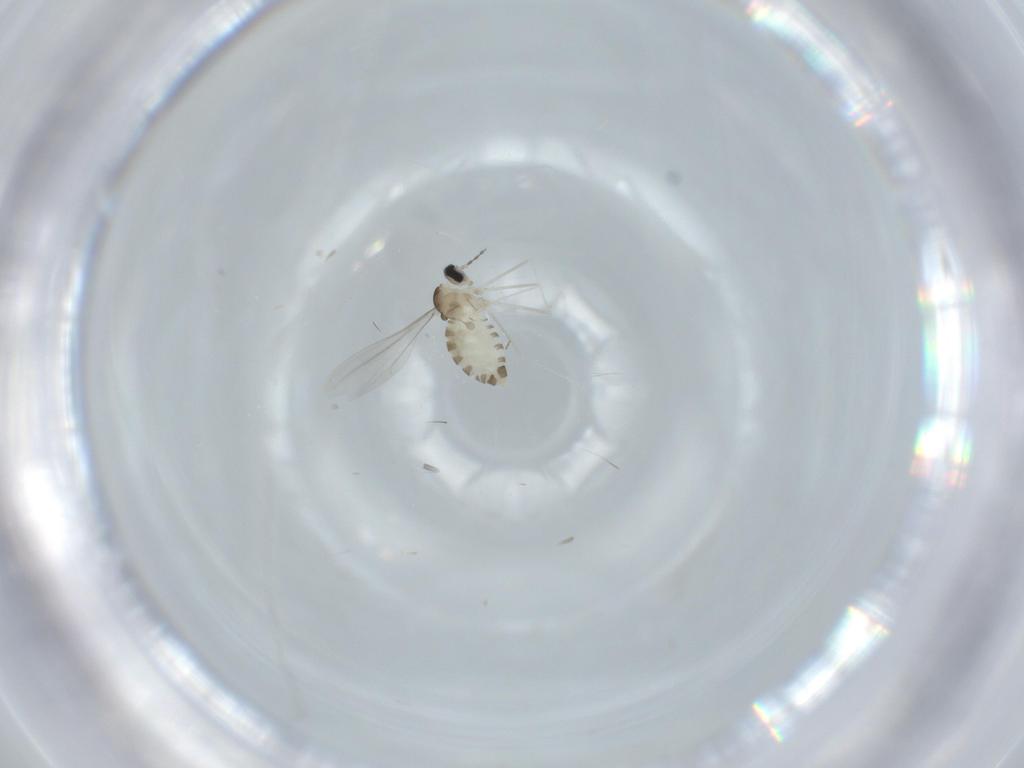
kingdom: Animalia
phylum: Arthropoda
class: Insecta
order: Diptera
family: Cecidomyiidae
